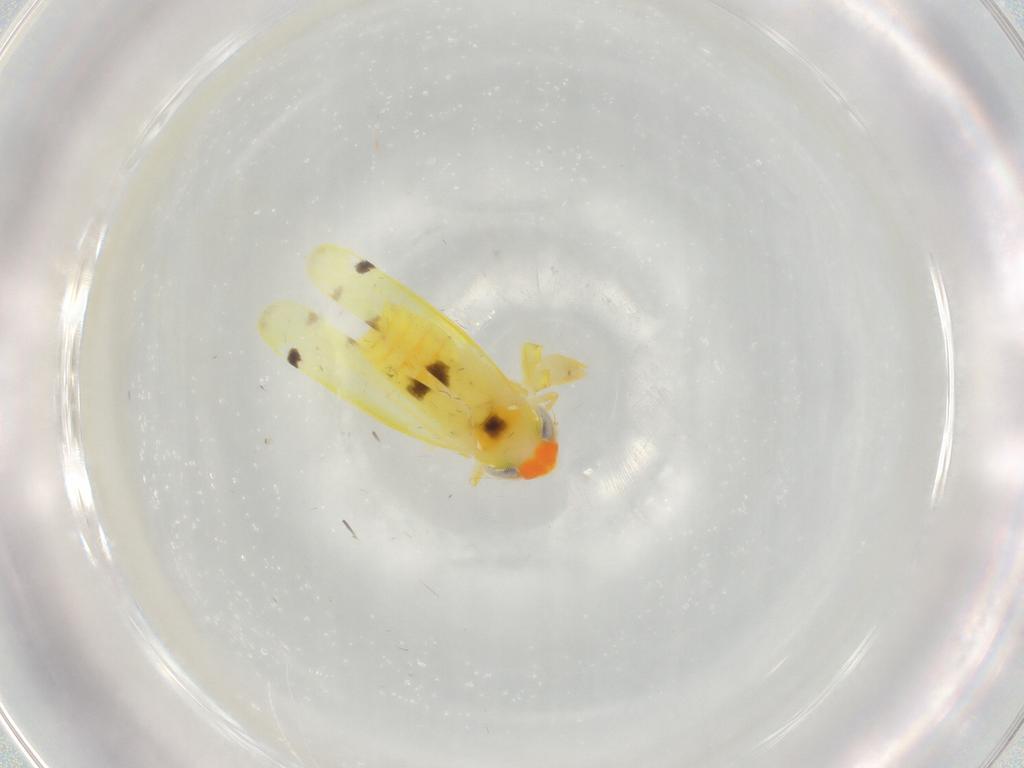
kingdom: Animalia
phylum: Arthropoda
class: Insecta
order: Hemiptera
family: Cicadellidae
